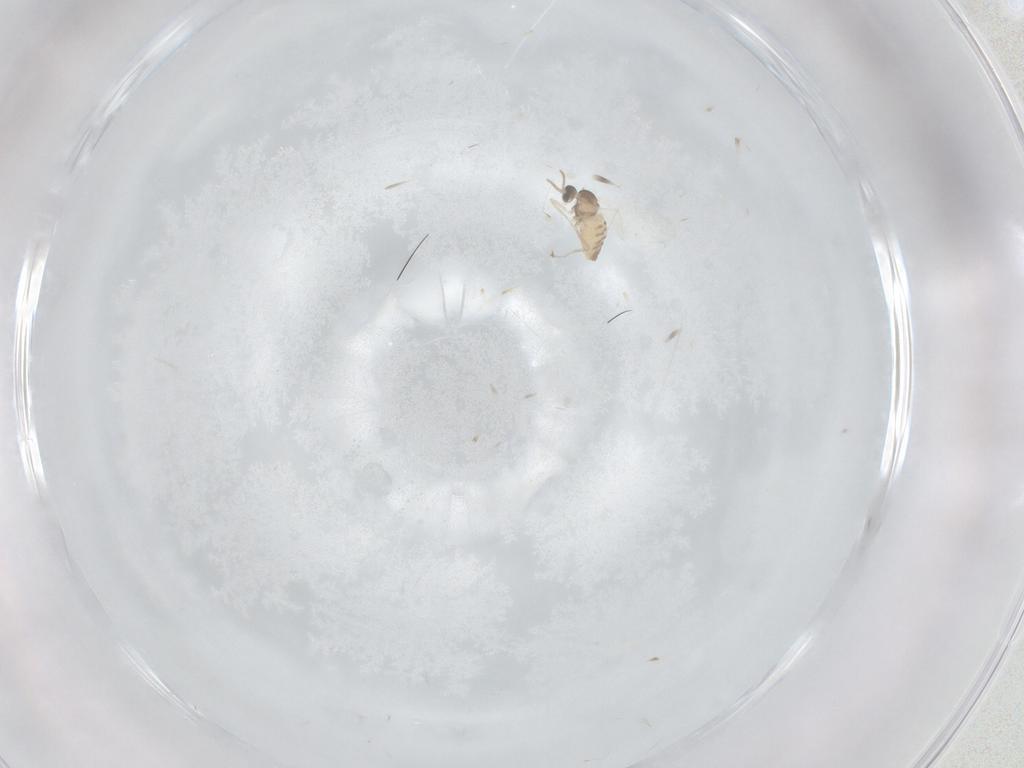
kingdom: Animalia
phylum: Arthropoda
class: Insecta
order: Diptera
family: Cecidomyiidae
